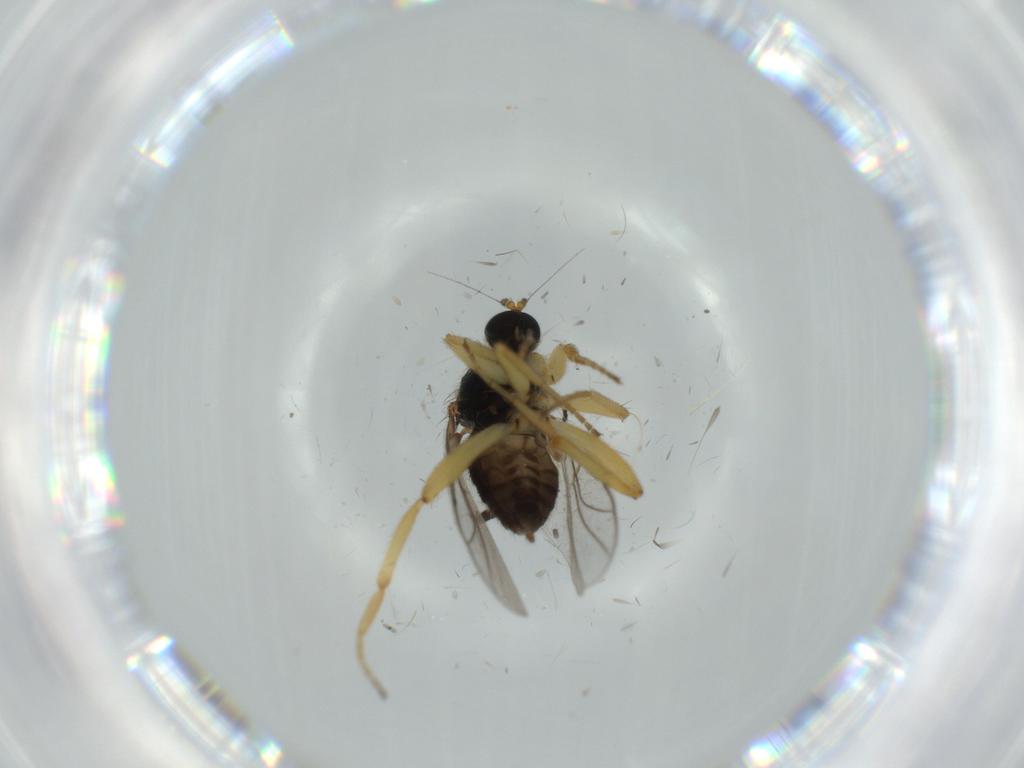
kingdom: Animalia
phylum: Arthropoda
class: Insecta
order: Diptera
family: Hybotidae
